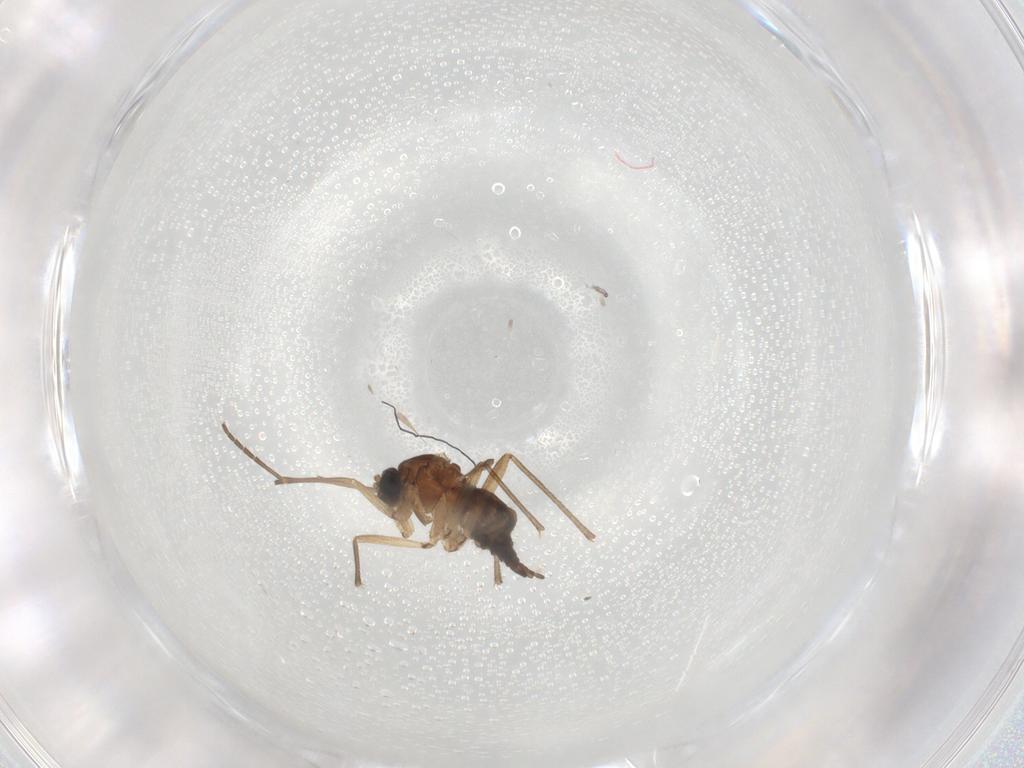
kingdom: Animalia
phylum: Arthropoda
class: Insecta
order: Diptera
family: Sciaridae
